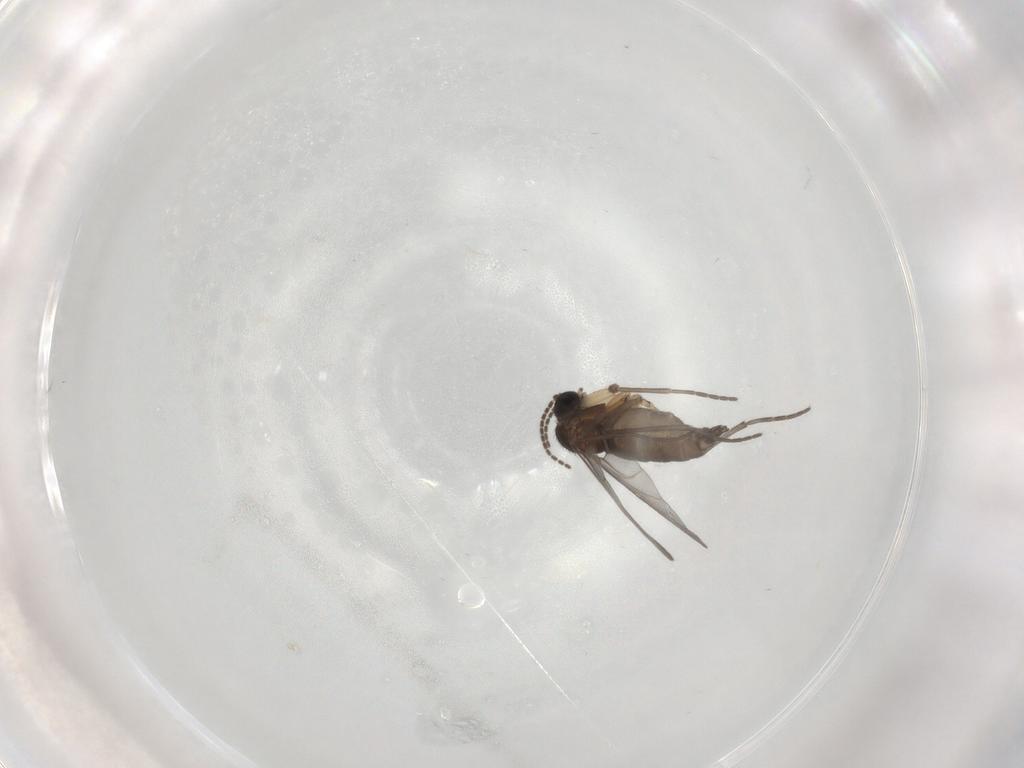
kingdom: Animalia
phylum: Arthropoda
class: Insecta
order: Diptera
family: Sciaridae
